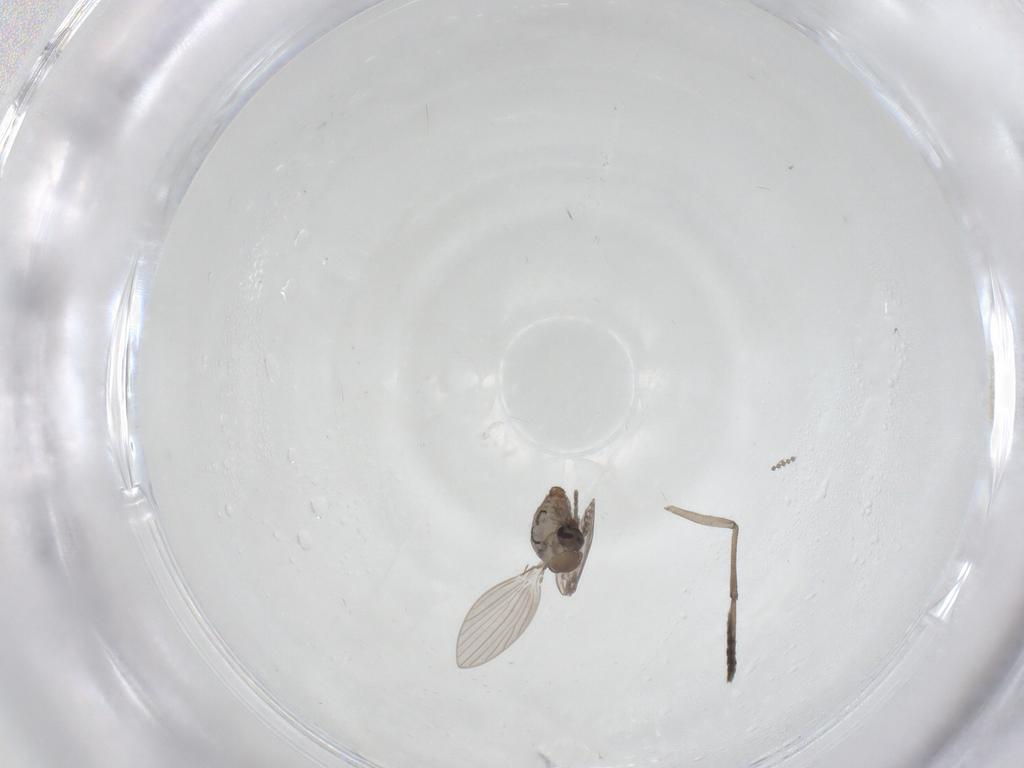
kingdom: Animalia
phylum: Arthropoda
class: Insecta
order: Diptera
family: Psychodidae
